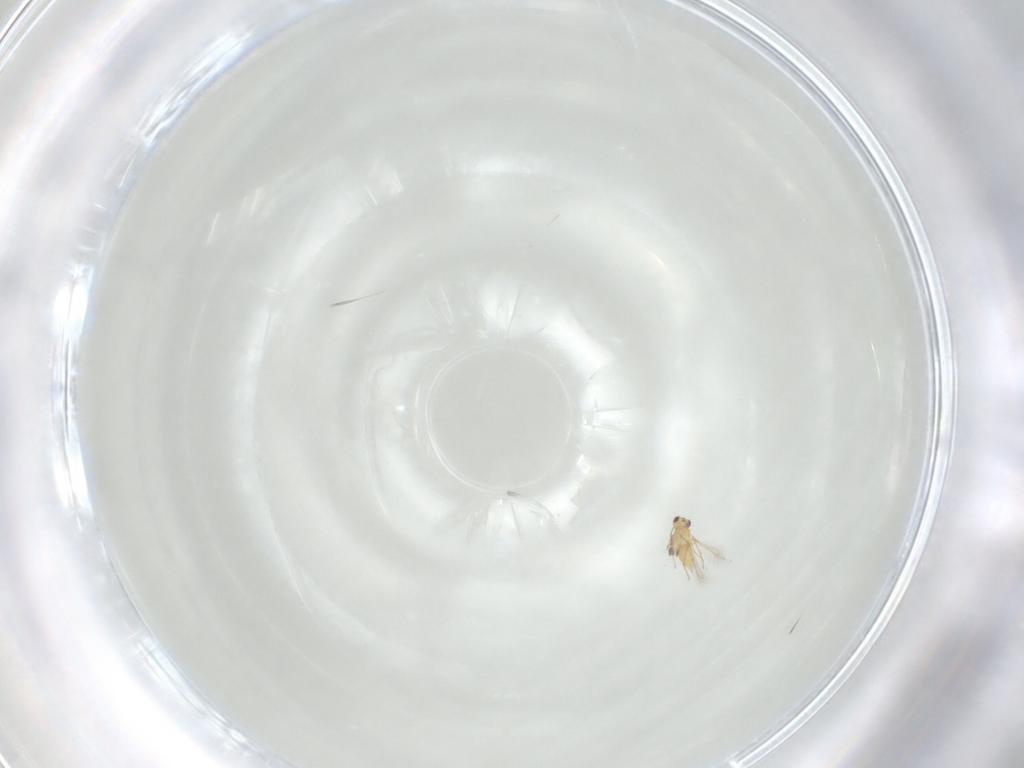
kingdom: Animalia
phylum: Arthropoda
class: Insecta
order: Hymenoptera
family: Mymaridae
